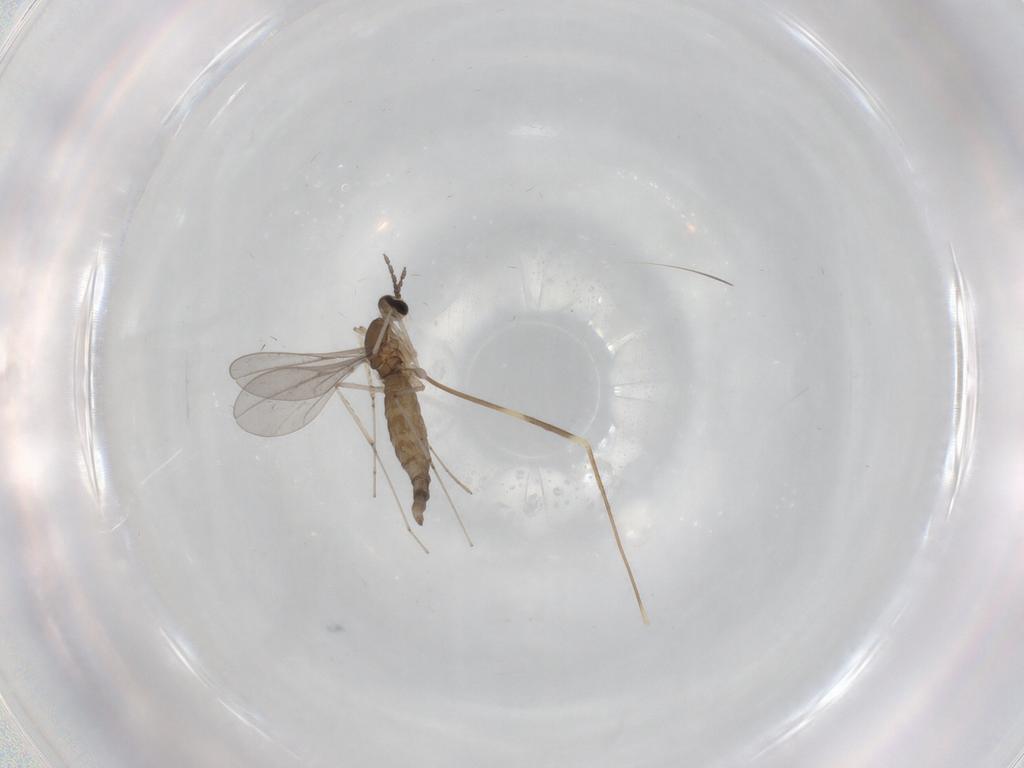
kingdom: Animalia
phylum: Arthropoda
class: Insecta
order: Diptera
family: Limoniidae
